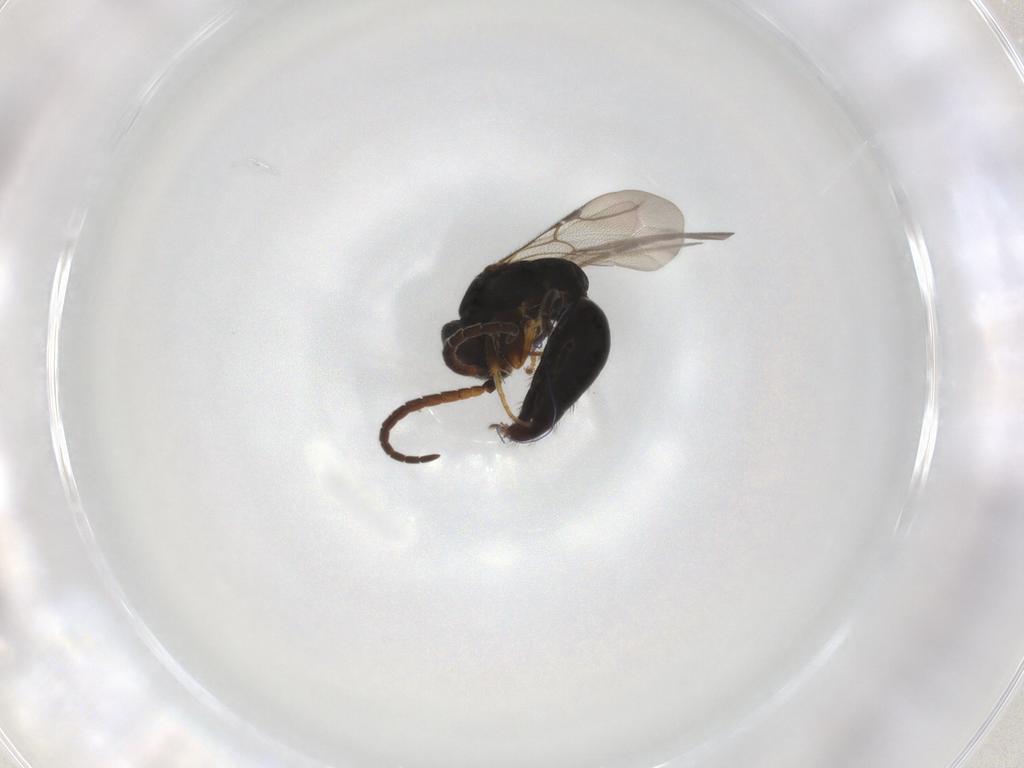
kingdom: Animalia
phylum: Arthropoda
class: Insecta
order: Hymenoptera
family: Bethylidae
